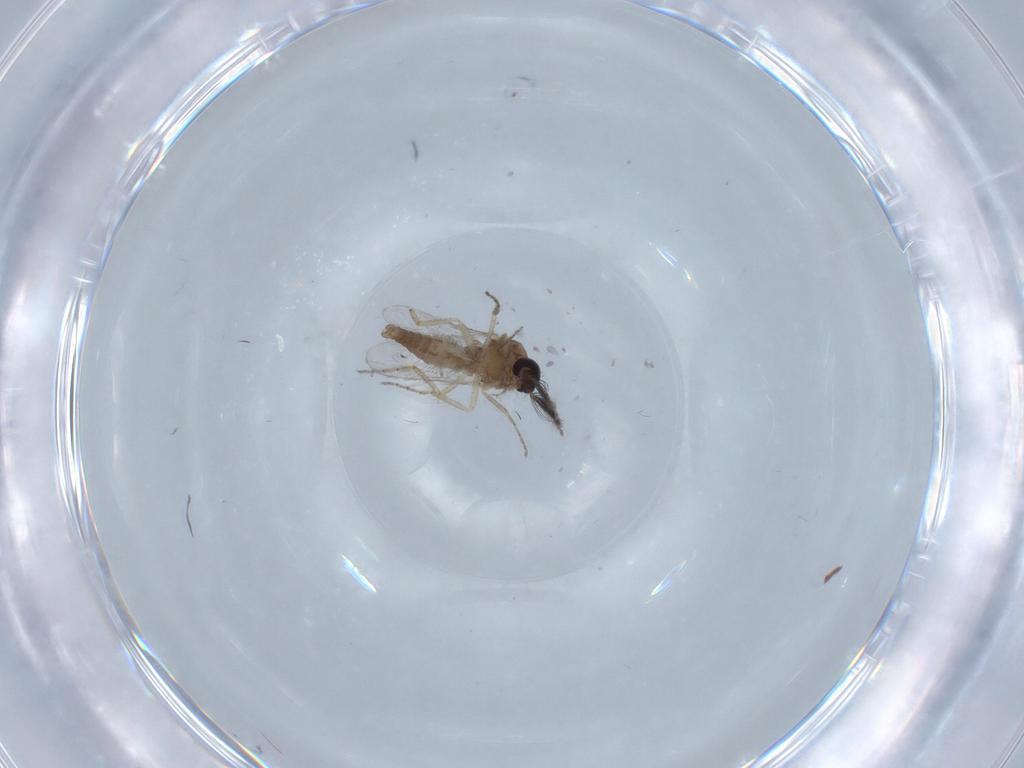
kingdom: Animalia
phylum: Arthropoda
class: Insecta
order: Diptera
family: Ceratopogonidae
